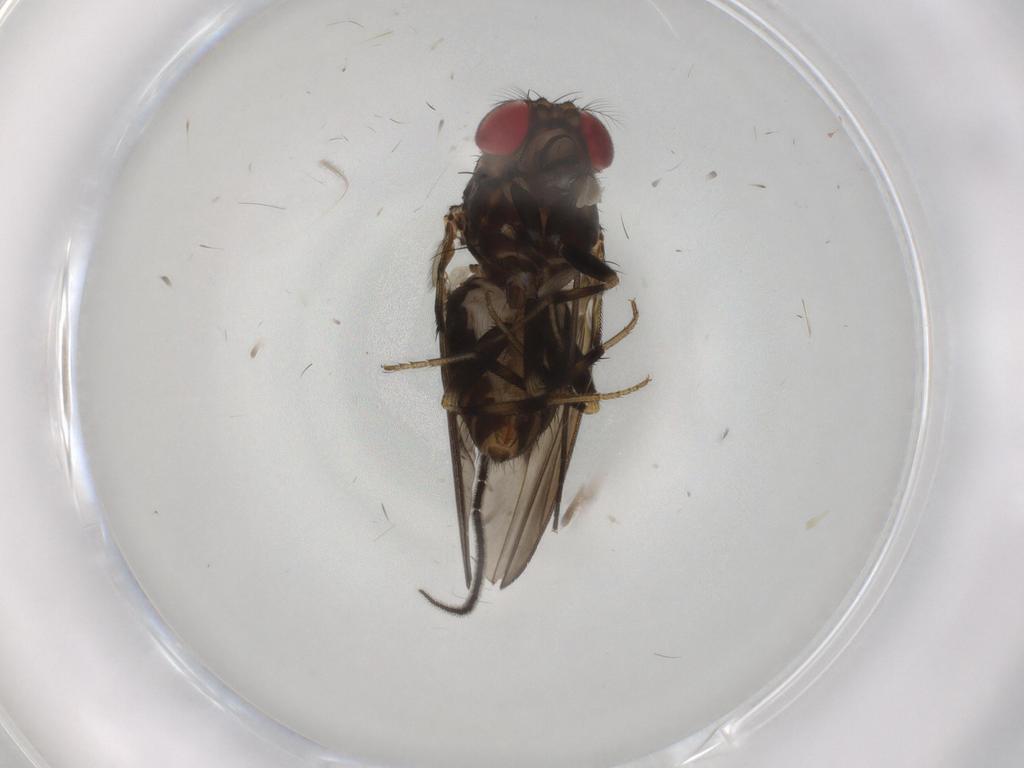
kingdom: Animalia
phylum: Arthropoda
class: Insecta
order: Diptera
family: Drosophilidae
